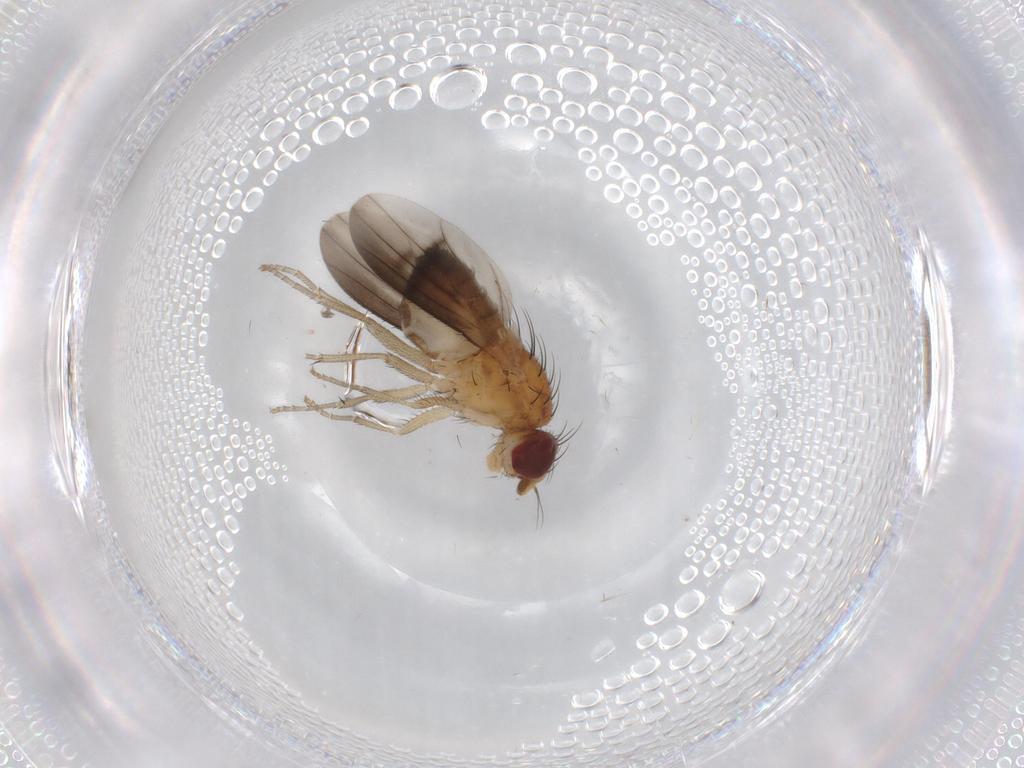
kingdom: Animalia
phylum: Arthropoda
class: Insecta
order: Diptera
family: Heleomyzidae
